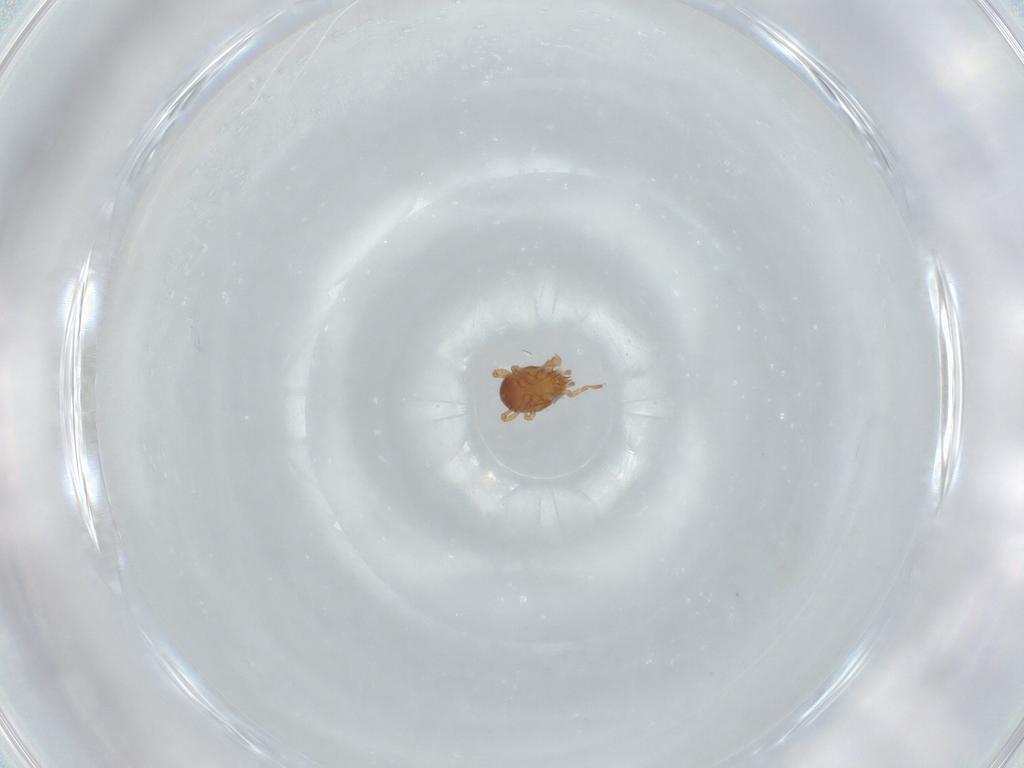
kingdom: Animalia
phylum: Arthropoda
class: Arachnida
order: Mesostigmata
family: Parasitidae
